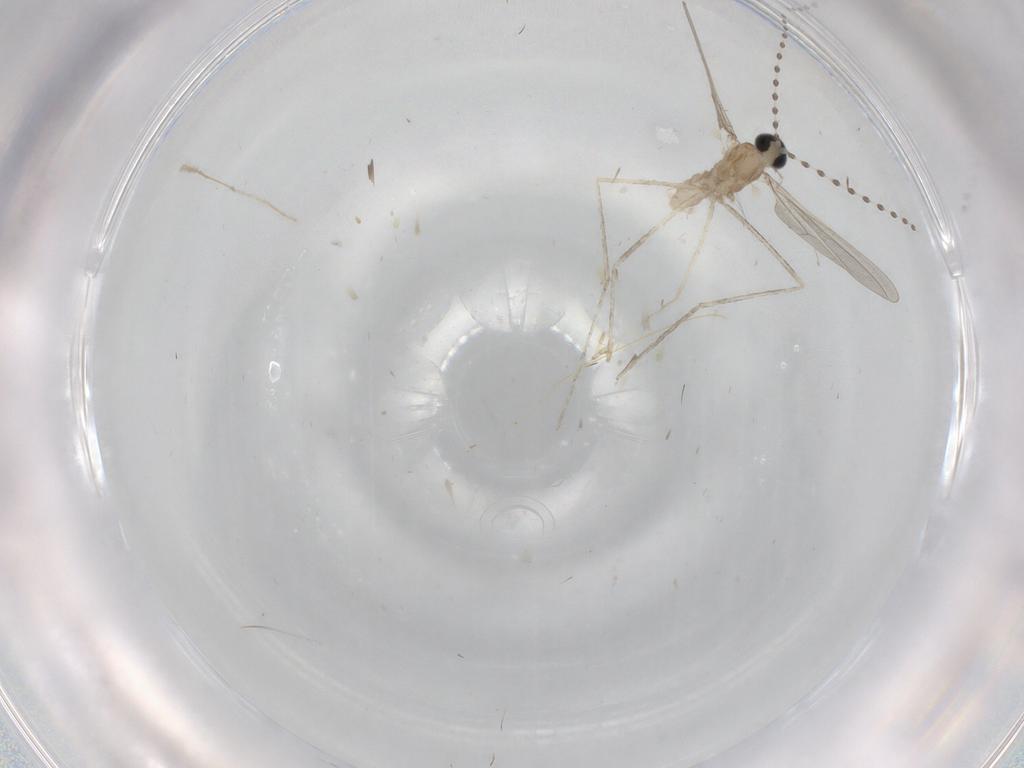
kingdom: Animalia
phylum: Arthropoda
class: Insecta
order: Diptera
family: Cecidomyiidae
